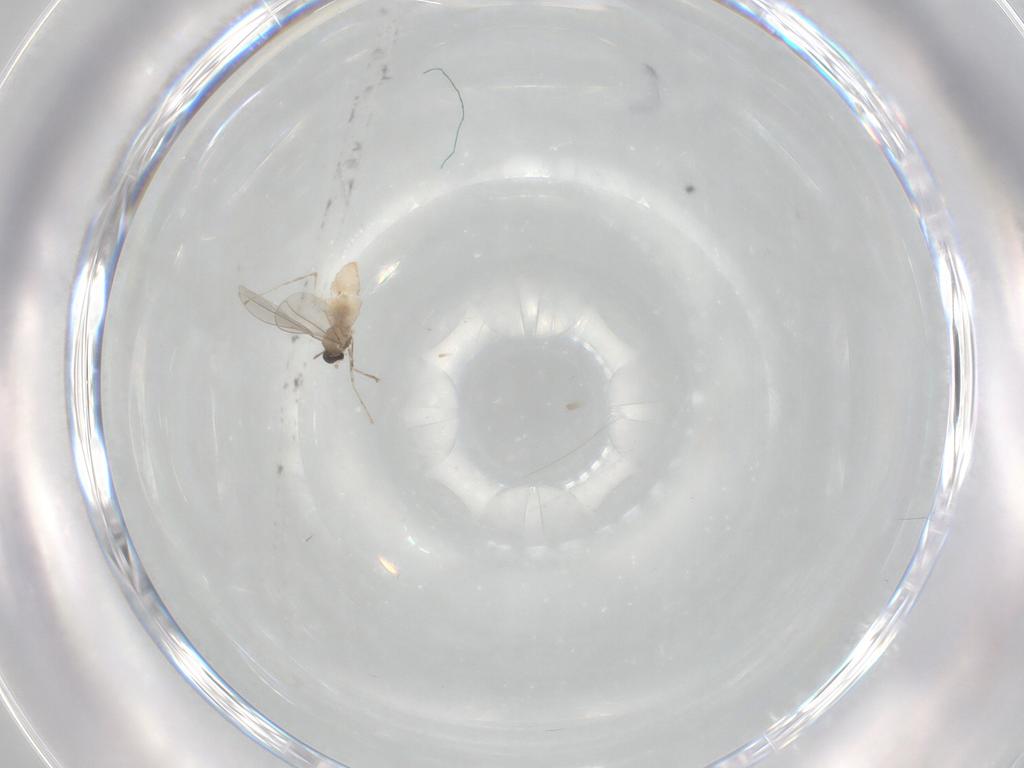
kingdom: Animalia
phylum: Arthropoda
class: Insecta
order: Diptera
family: Cecidomyiidae
